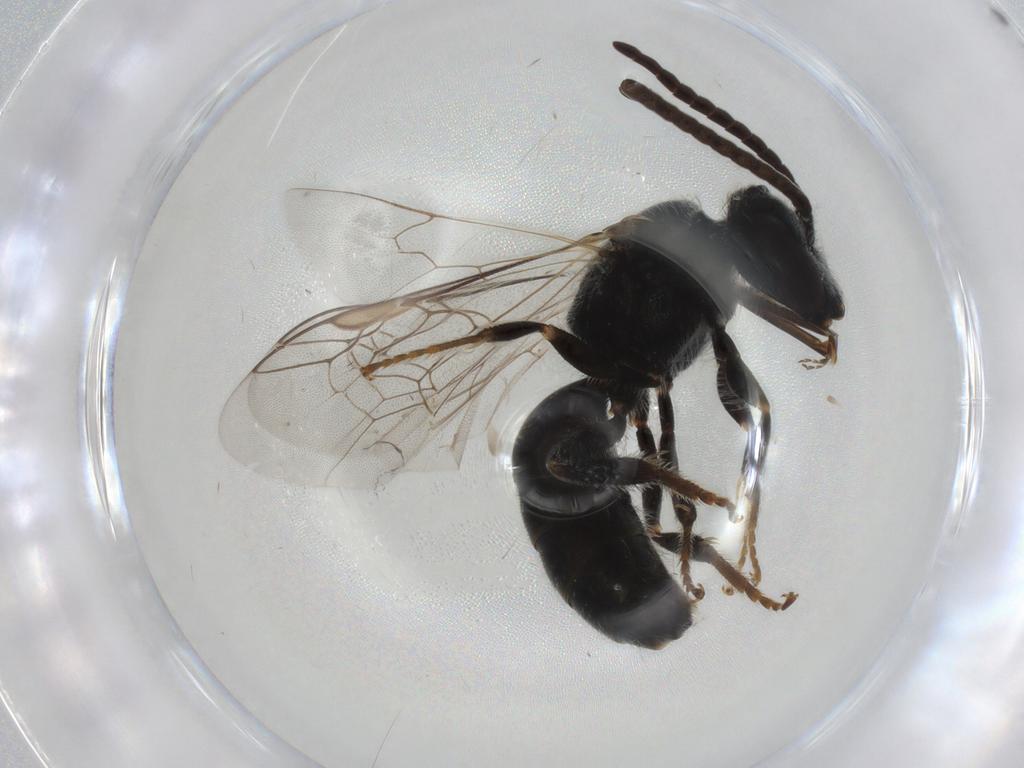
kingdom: Animalia
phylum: Arthropoda
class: Insecta
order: Hymenoptera
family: Halictidae
